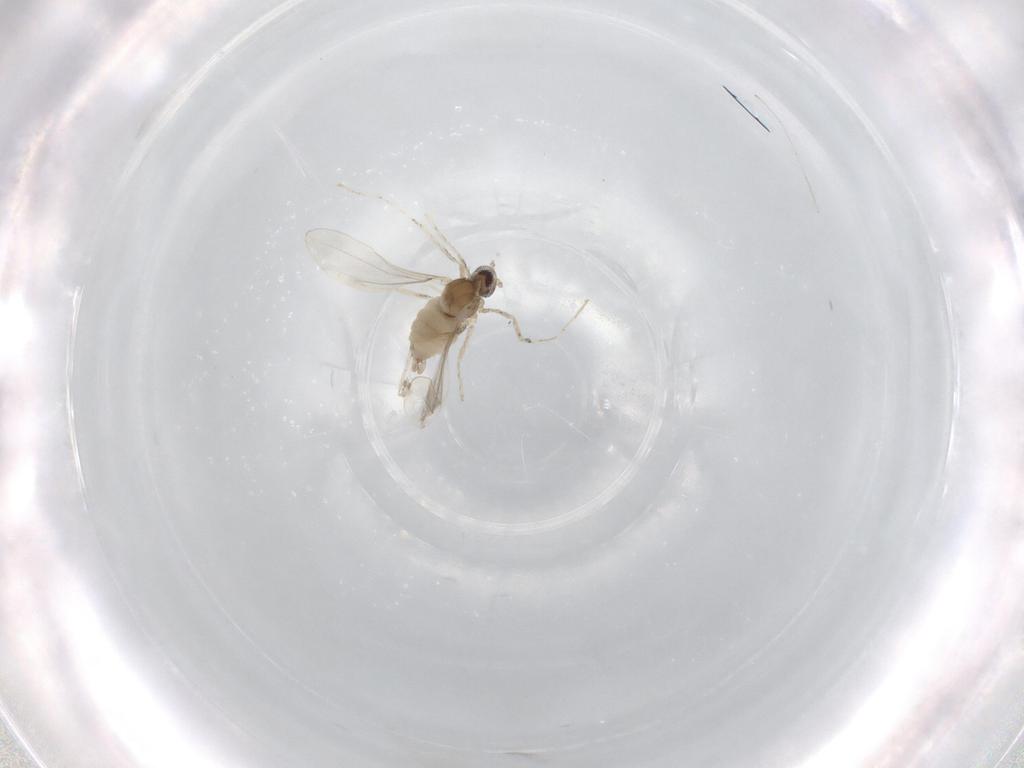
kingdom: Animalia
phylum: Arthropoda
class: Insecta
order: Diptera
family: Cecidomyiidae
